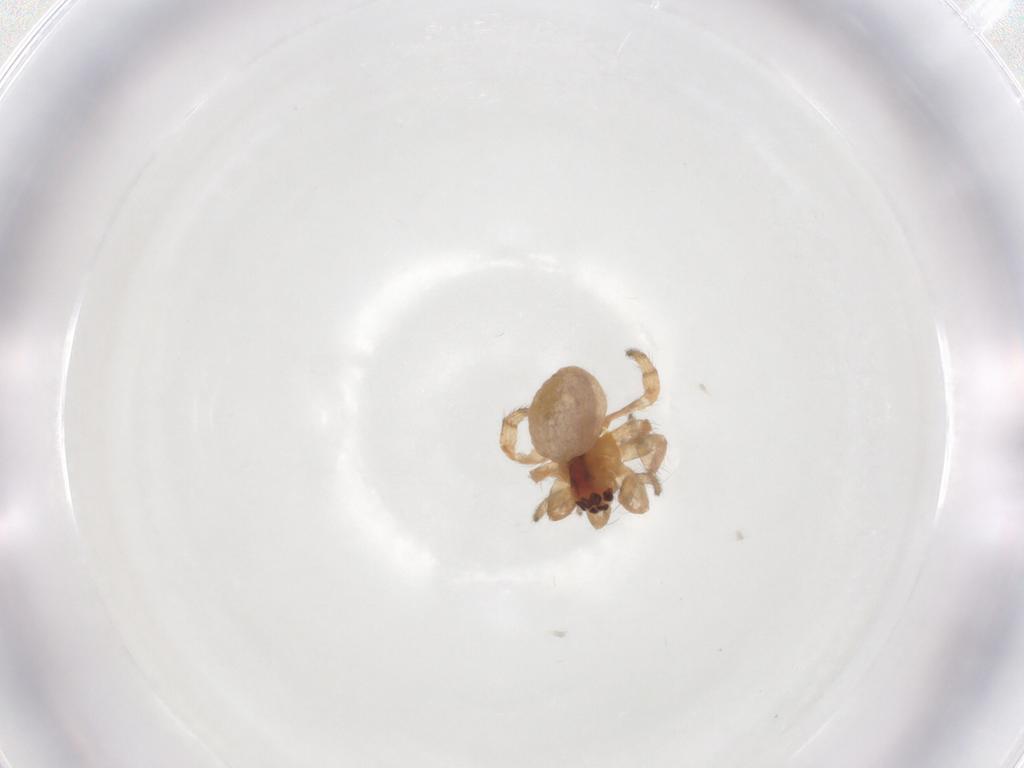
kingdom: Animalia
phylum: Arthropoda
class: Arachnida
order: Araneae
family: Araneidae
